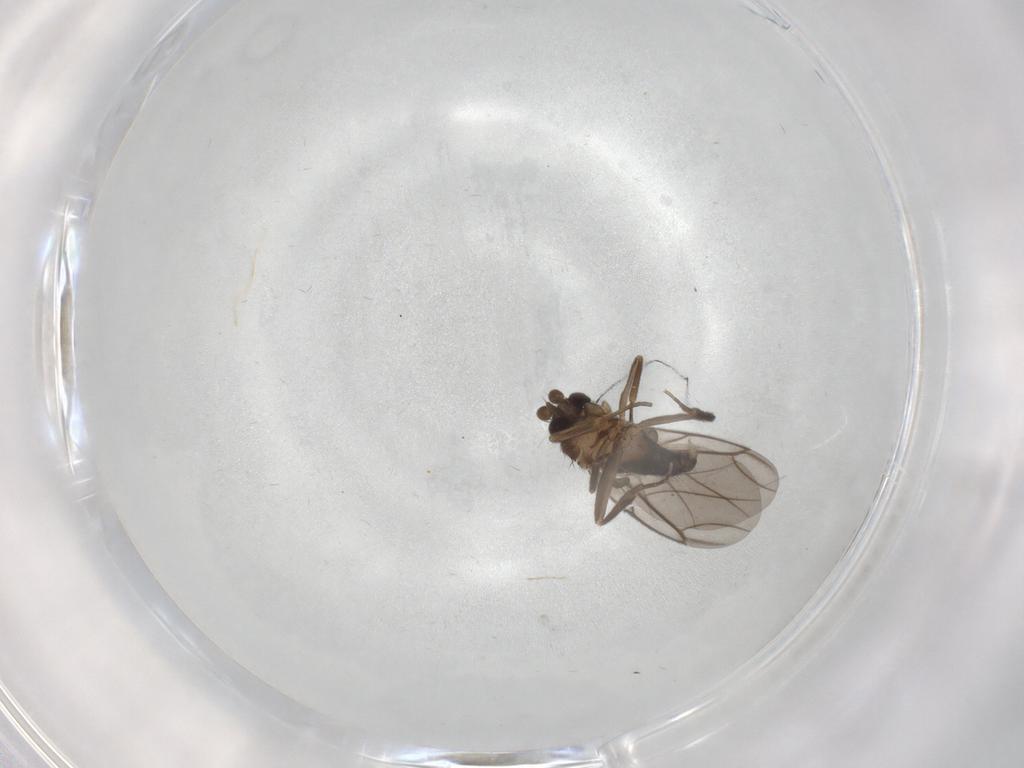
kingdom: Animalia
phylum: Arthropoda
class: Insecta
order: Diptera
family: Phoridae
